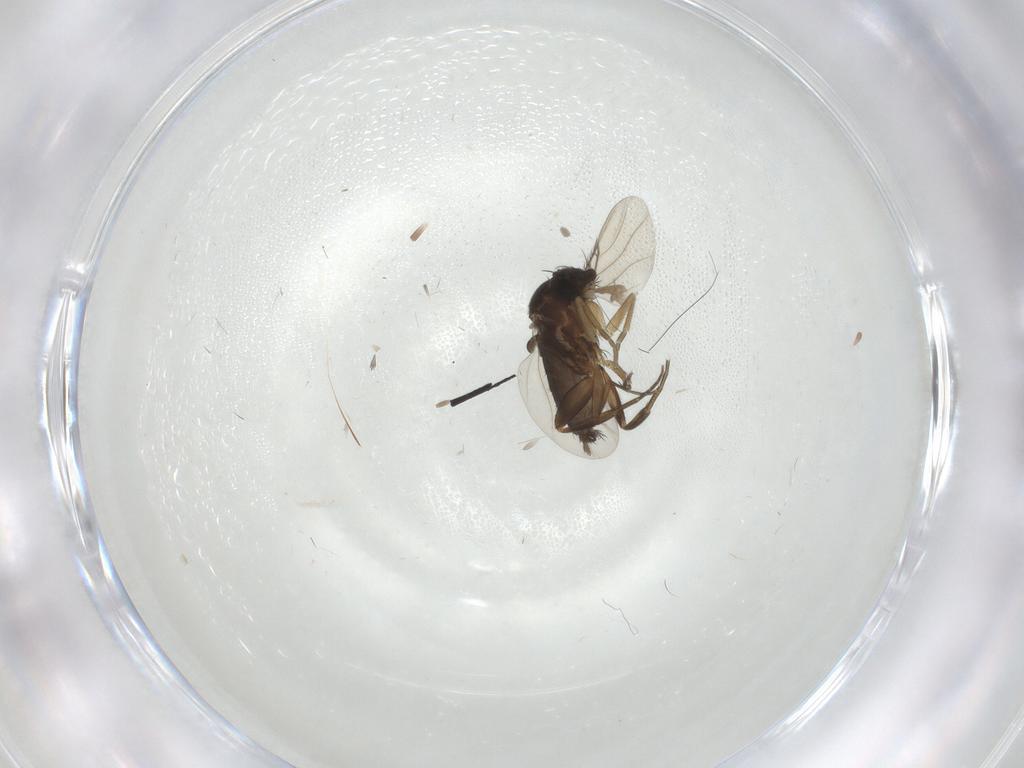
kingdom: Animalia
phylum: Arthropoda
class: Insecta
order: Diptera
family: Phoridae
